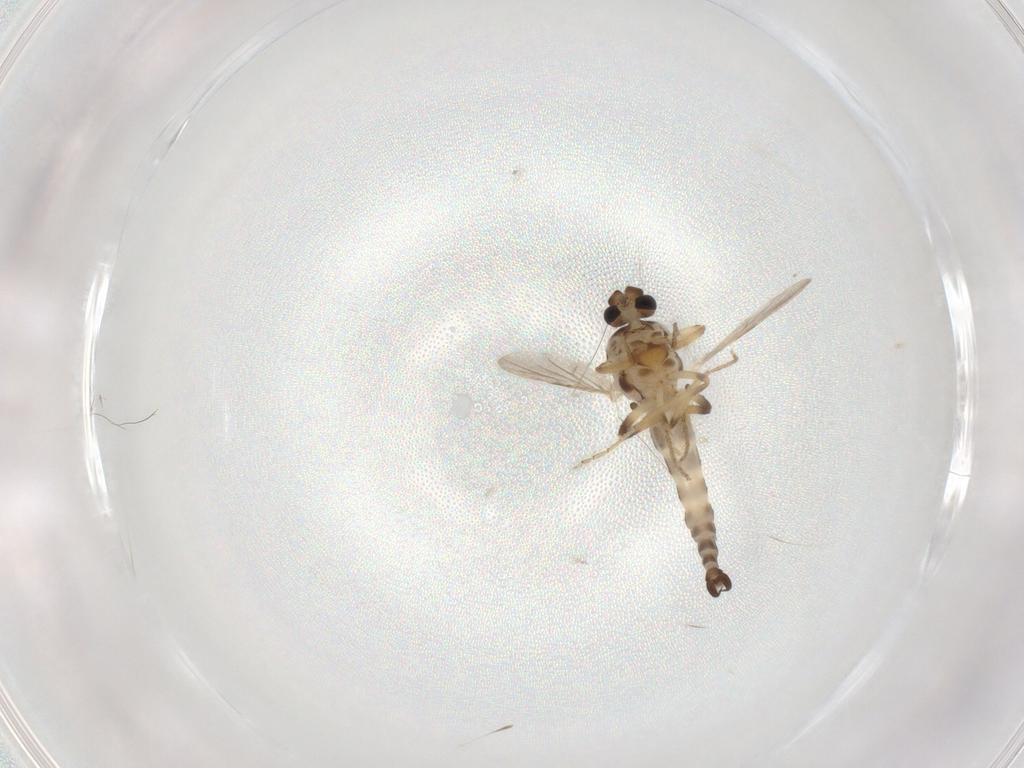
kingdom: Animalia
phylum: Arthropoda
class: Insecta
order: Diptera
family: Ceratopogonidae
